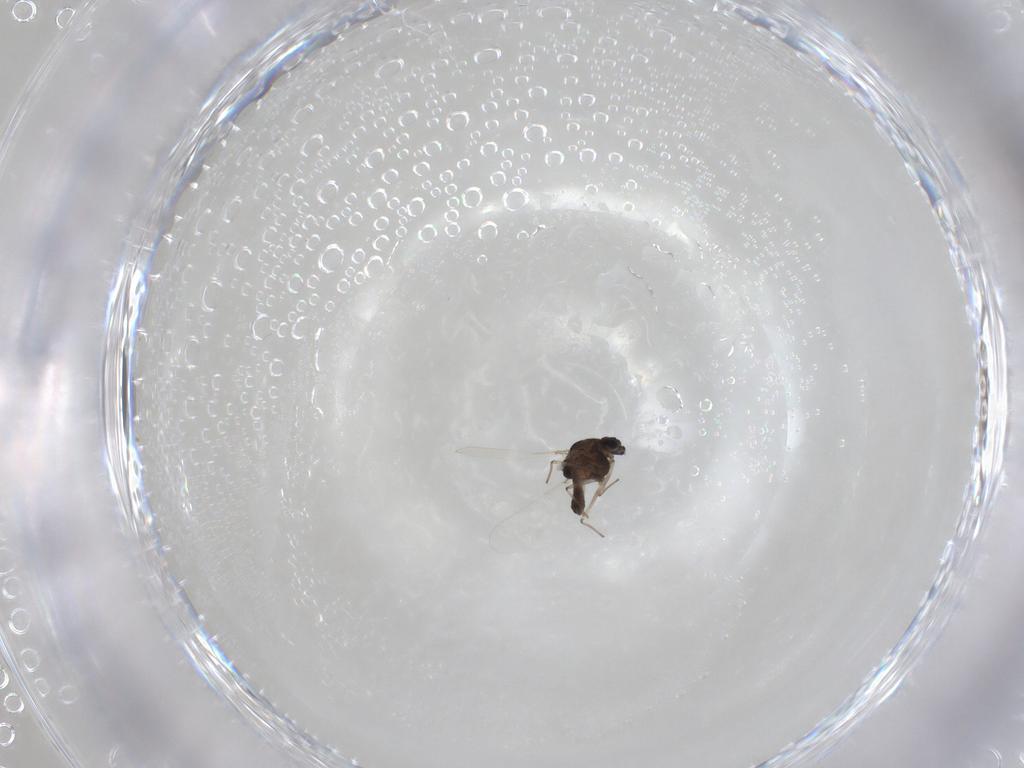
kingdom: Animalia
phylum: Arthropoda
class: Insecta
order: Diptera
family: Chironomidae
